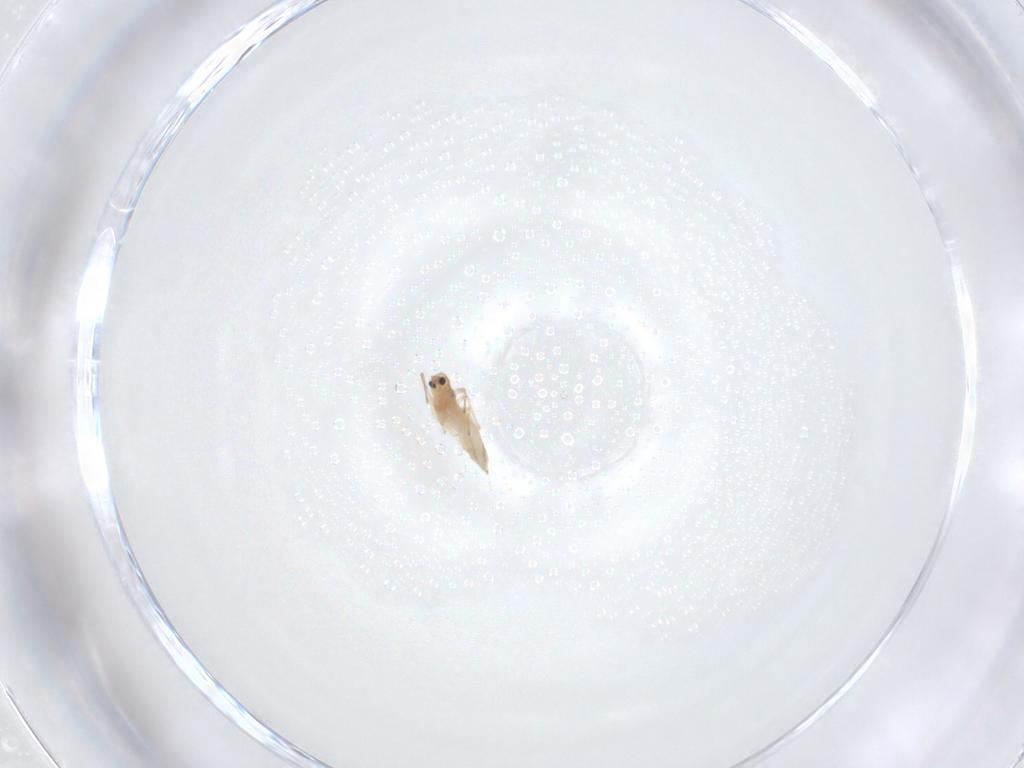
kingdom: Animalia
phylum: Arthropoda
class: Insecta
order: Diptera
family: Chironomidae
